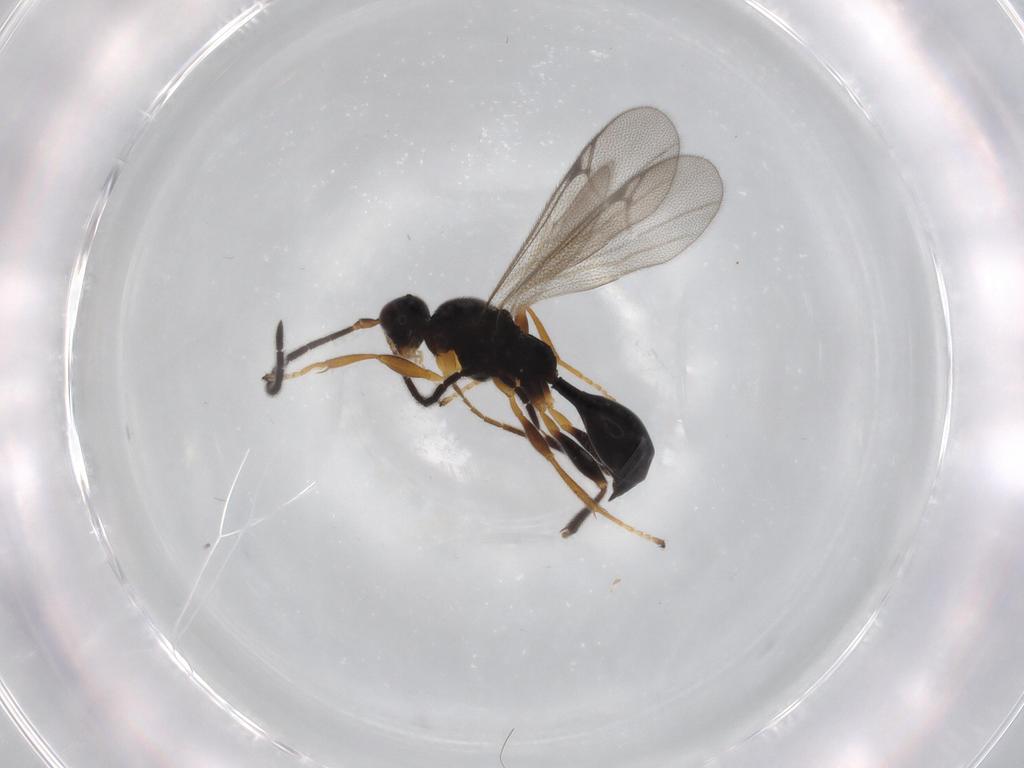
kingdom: Animalia
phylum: Arthropoda
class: Insecta
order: Hymenoptera
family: Proctotrupidae
